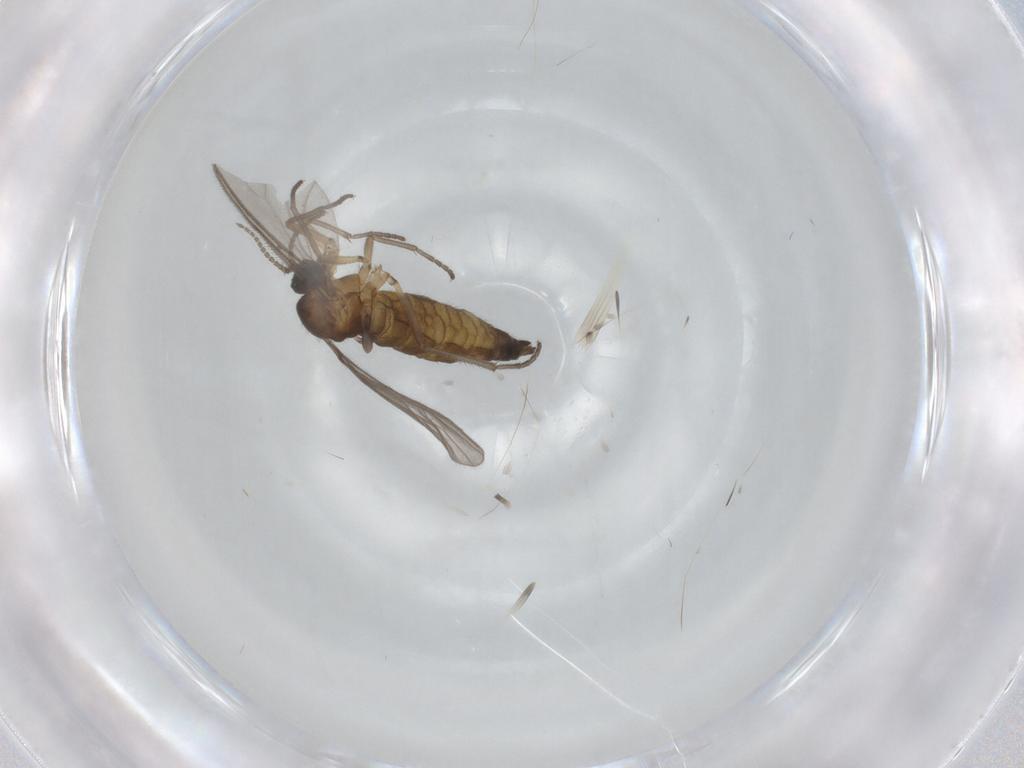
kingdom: Animalia
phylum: Arthropoda
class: Insecta
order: Diptera
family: Sciaridae
